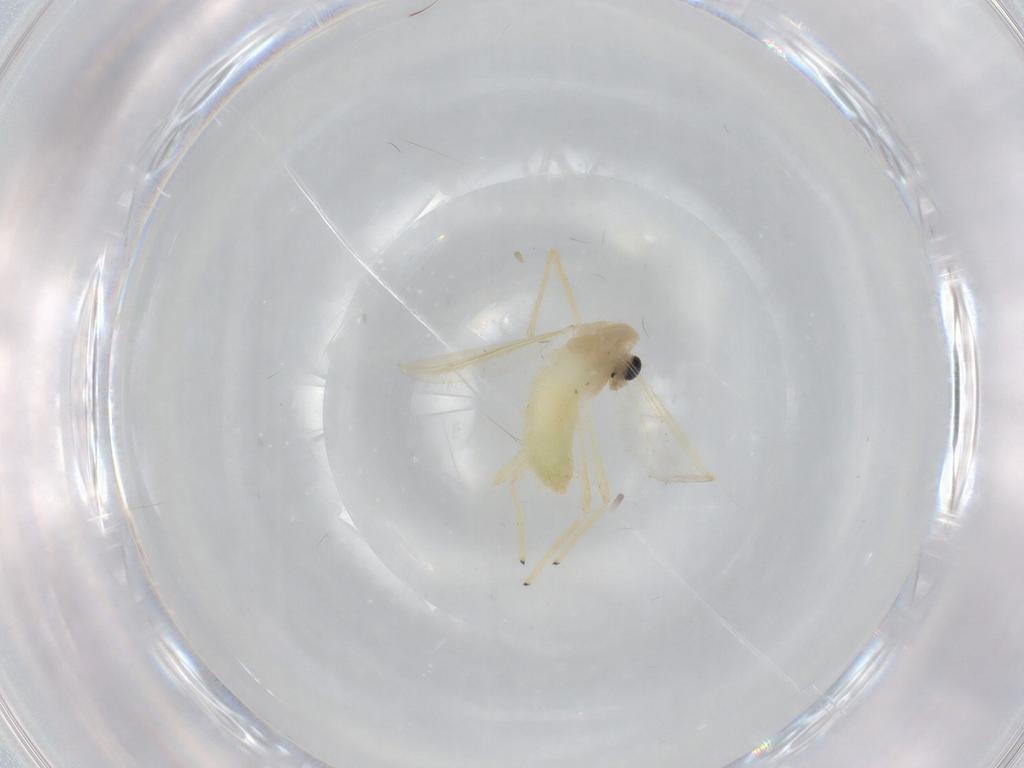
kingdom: Animalia
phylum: Arthropoda
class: Insecta
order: Diptera
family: Chironomidae
